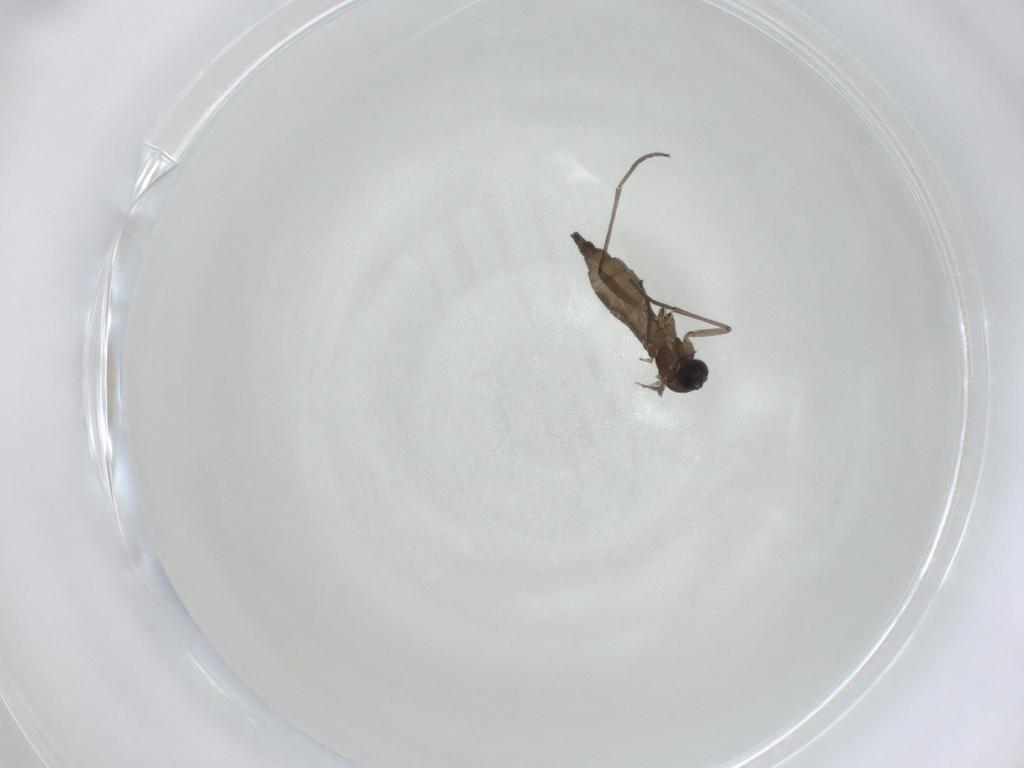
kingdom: Animalia
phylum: Arthropoda
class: Insecta
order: Diptera
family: Sciaridae
